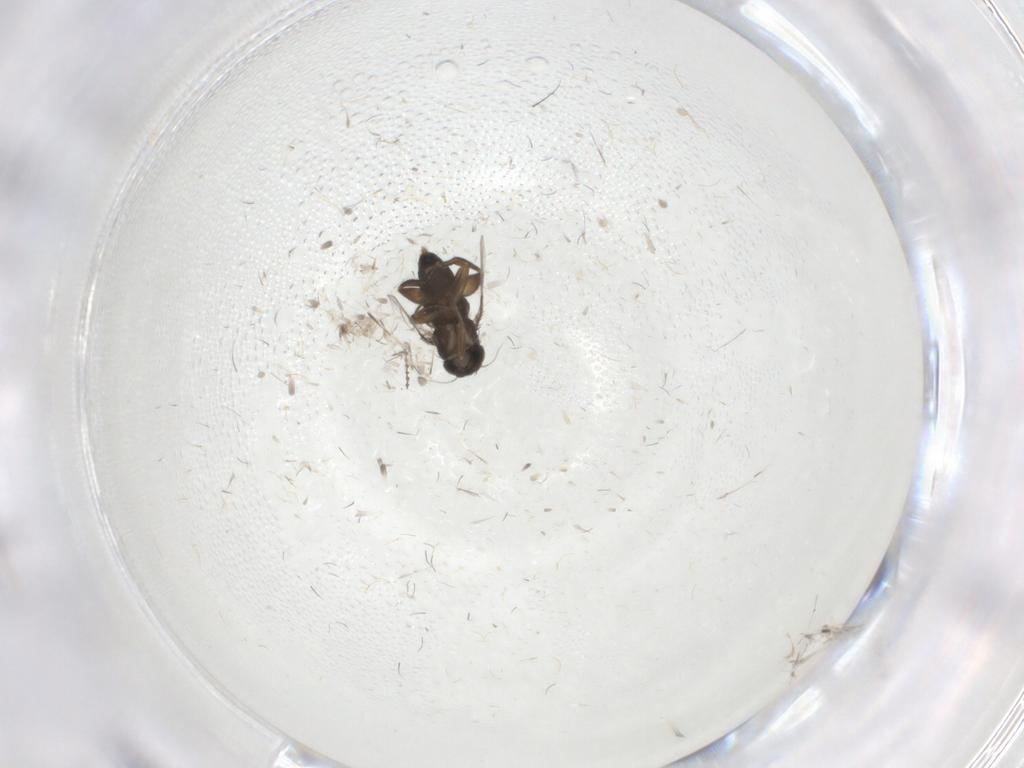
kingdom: Animalia
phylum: Arthropoda
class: Insecta
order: Diptera
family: Phoridae
